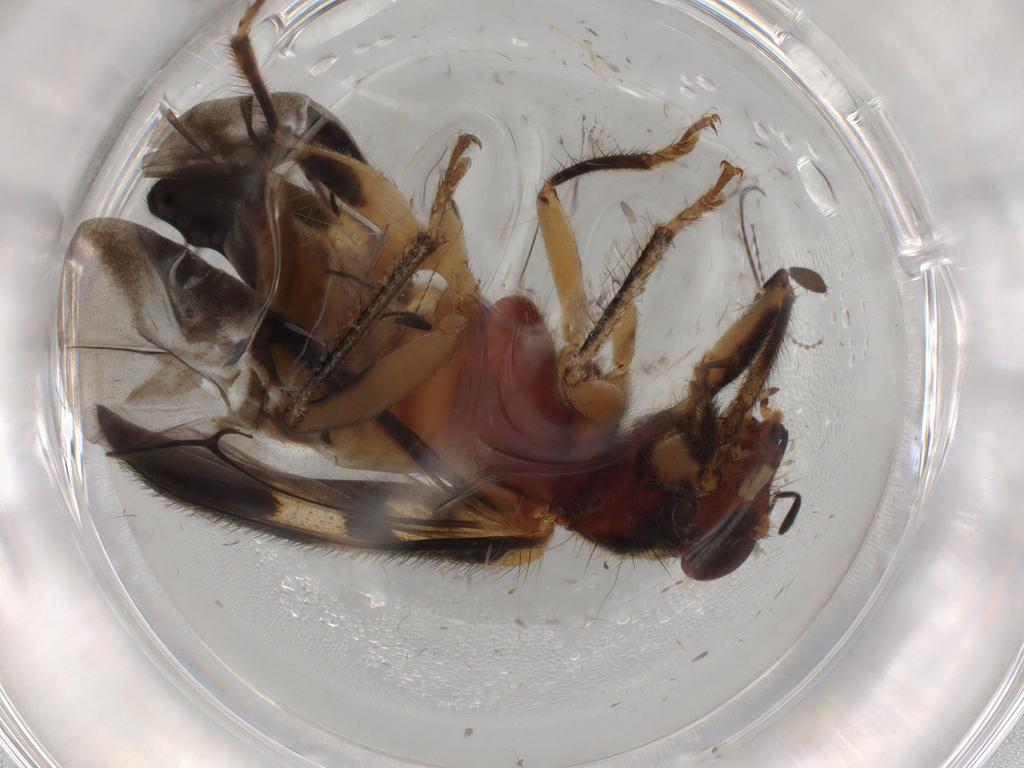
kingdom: Animalia
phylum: Arthropoda
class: Insecta
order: Coleoptera
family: Cleridae
